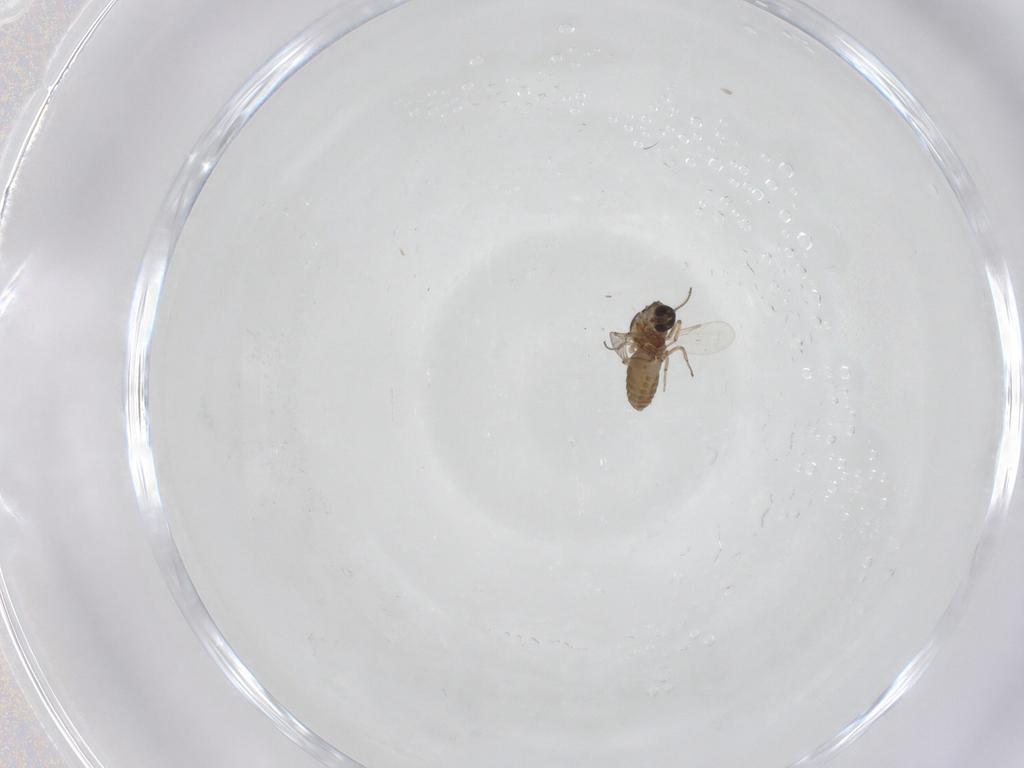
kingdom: Animalia
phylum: Arthropoda
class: Insecta
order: Diptera
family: Ceratopogonidae
